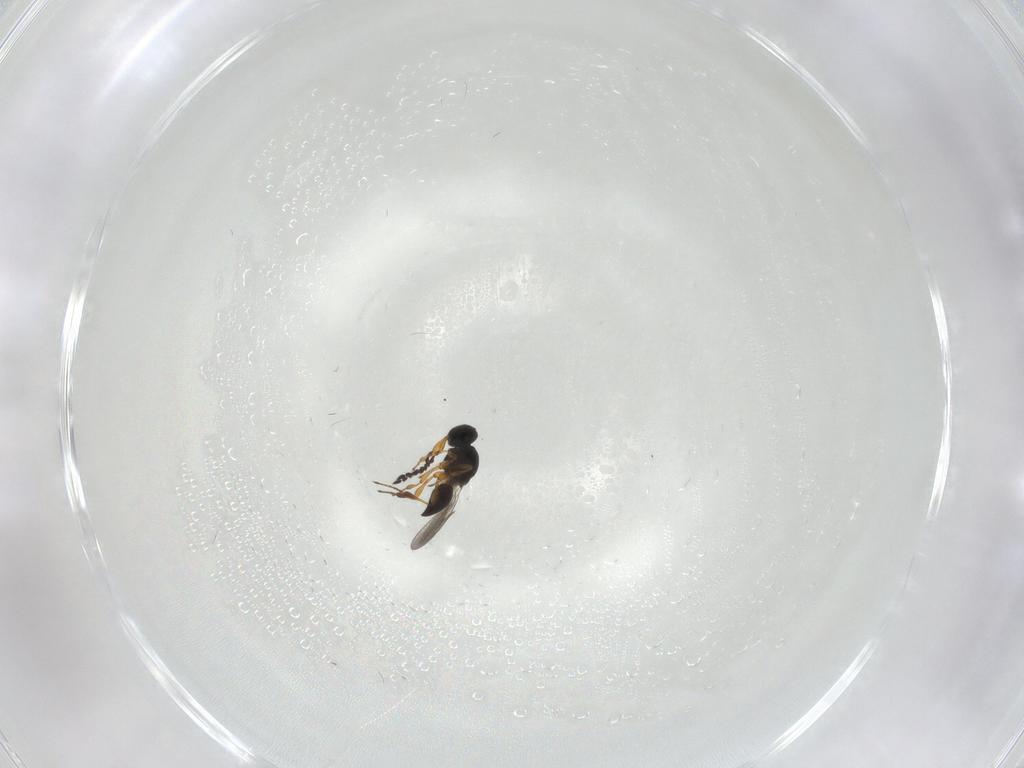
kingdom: Animalia
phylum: Arthropoda
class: Insecta
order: Hymenoptera
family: Platygastridae
